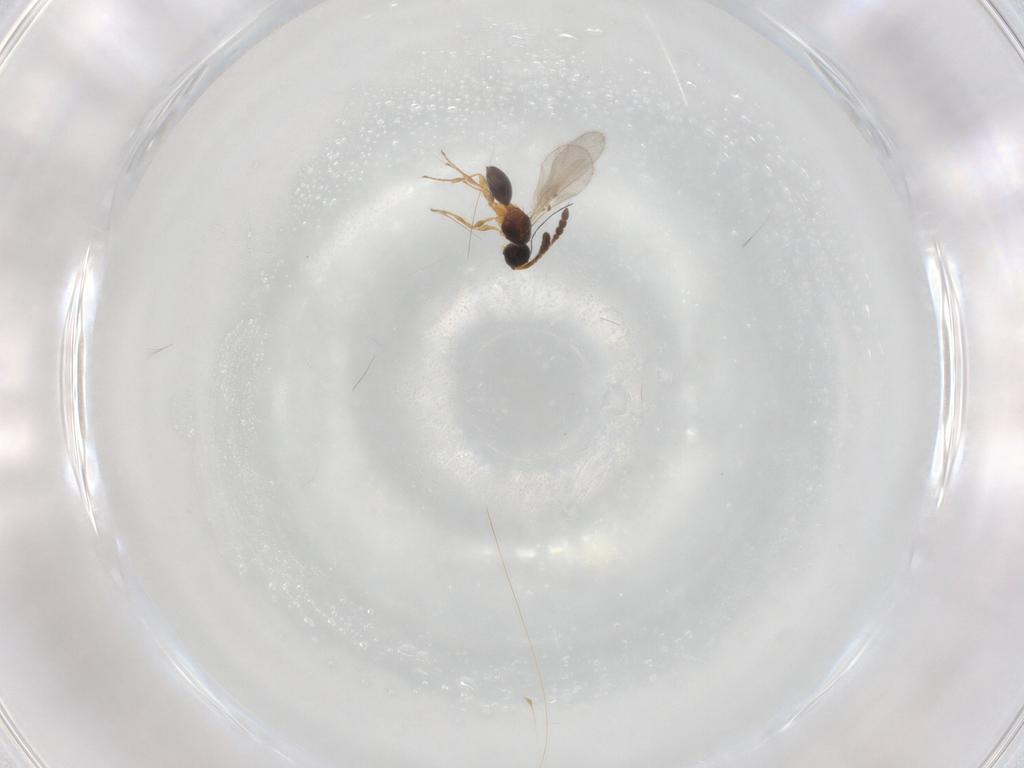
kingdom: Animalia
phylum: Arthropoda
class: Insecta
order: Hymenoptera
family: Diapriidae
